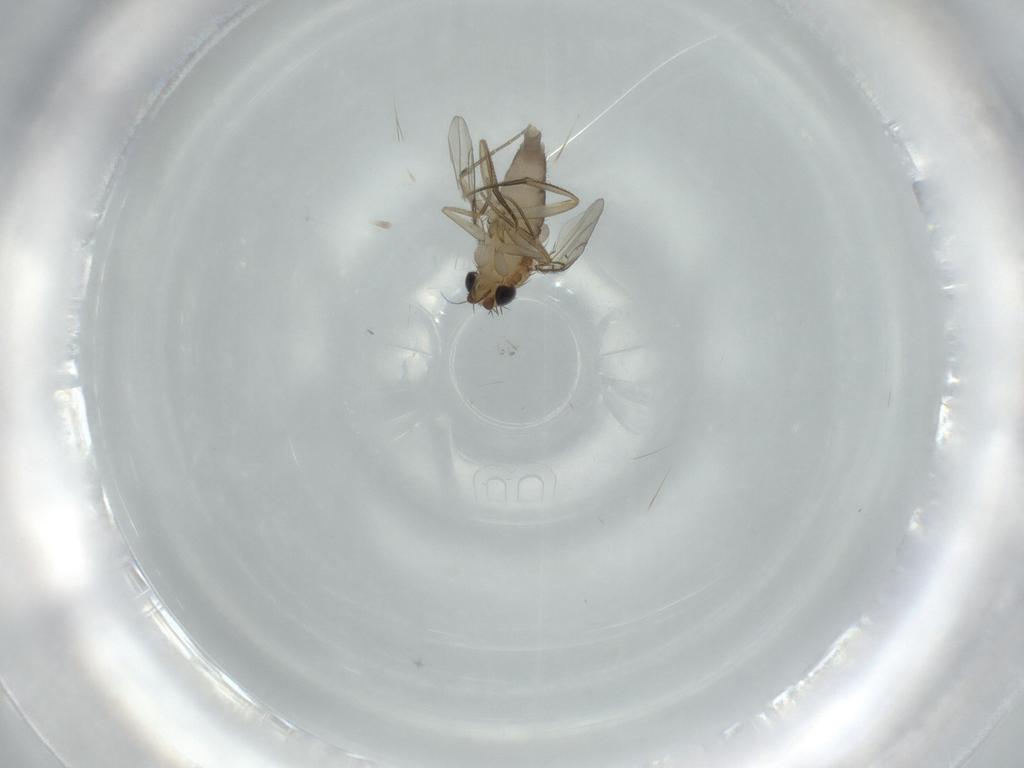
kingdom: Animalia
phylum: Arthropoda
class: Insecta
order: Diptera
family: Phoridae
